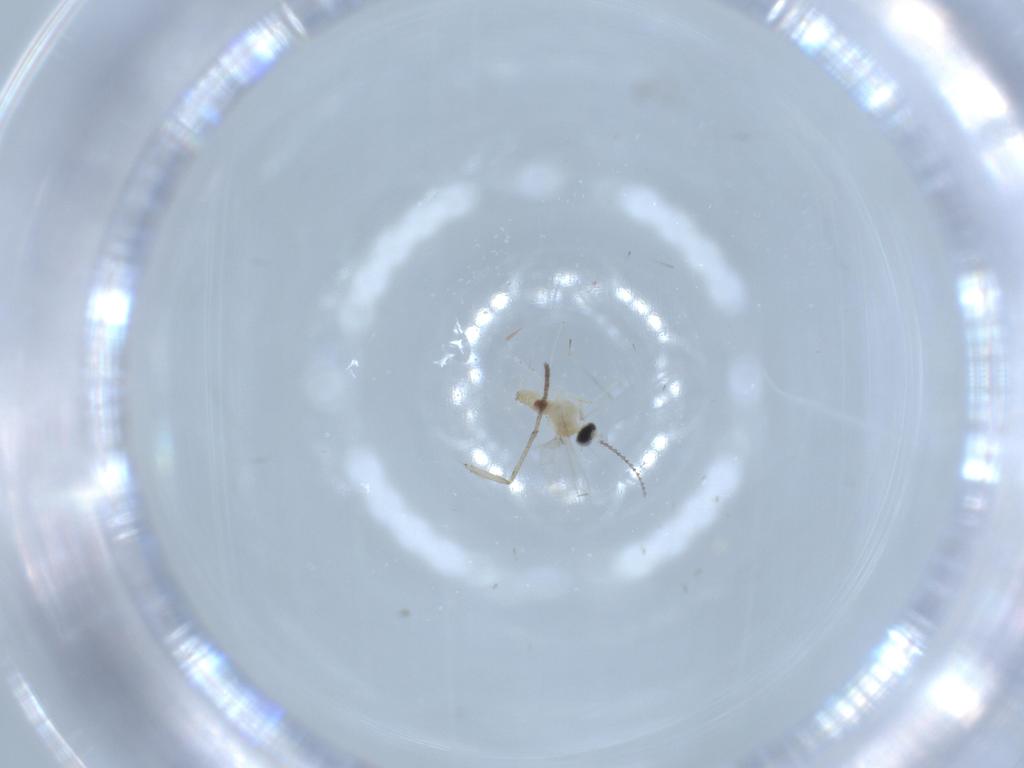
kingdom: Animalia
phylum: Arthropoda
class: Insecta
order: Diptera
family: Cecidomyiidae
